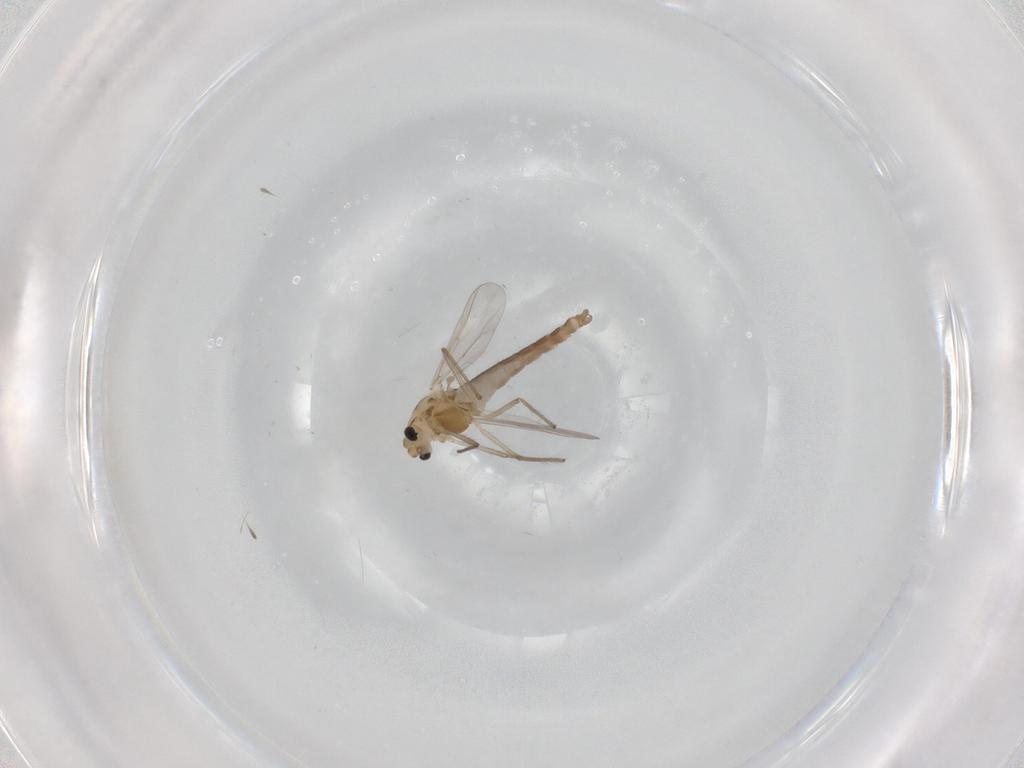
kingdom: Animalia
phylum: Arthropoda
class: Insecta
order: Diptera
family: Chironomidae
